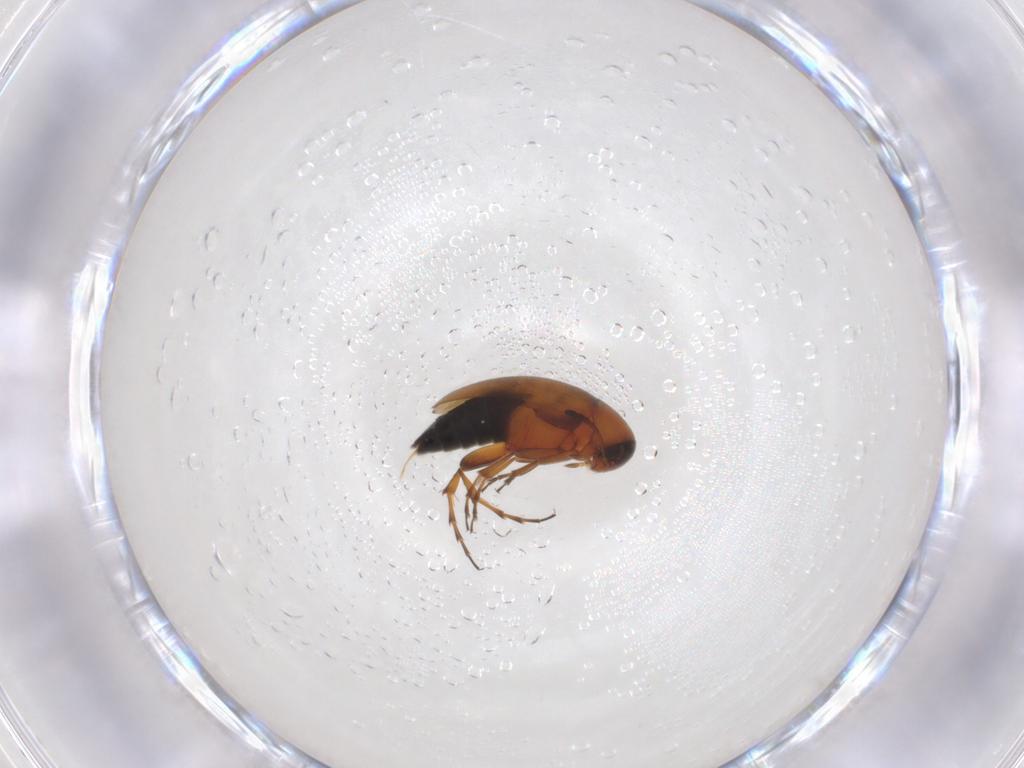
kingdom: Animalia
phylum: Arthropoda
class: Insecta
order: Coleoptera
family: Scraptiidae
